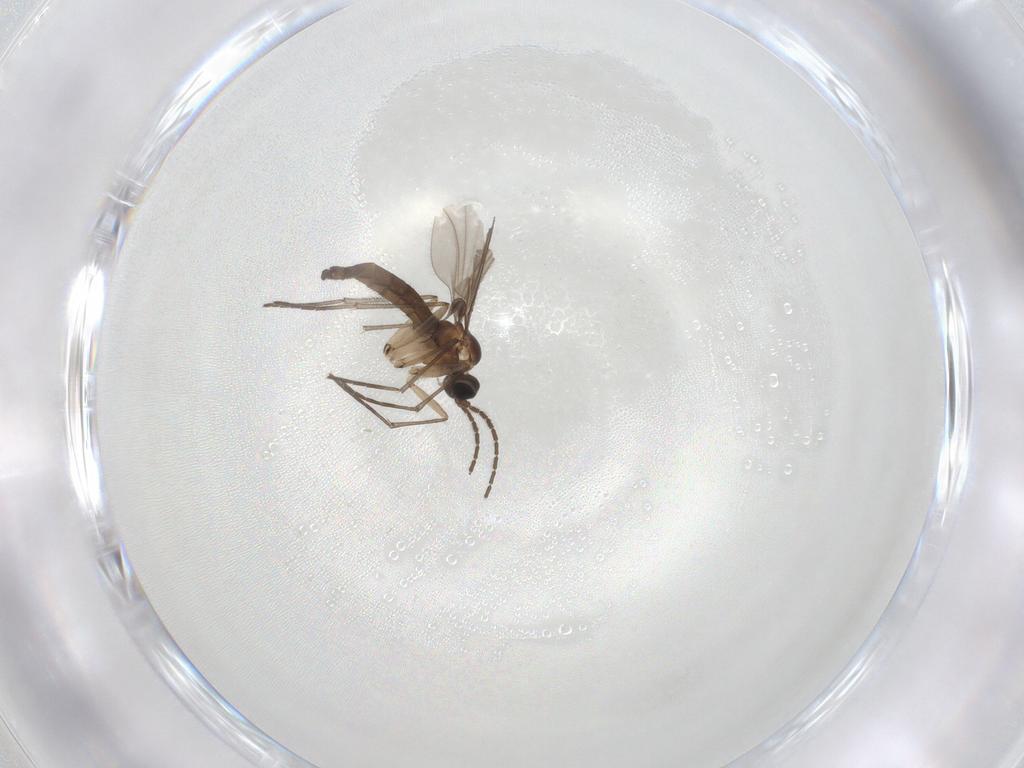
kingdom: Animalia
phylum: Arthropoda
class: Insecta
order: Diptera
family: Sciaridae
